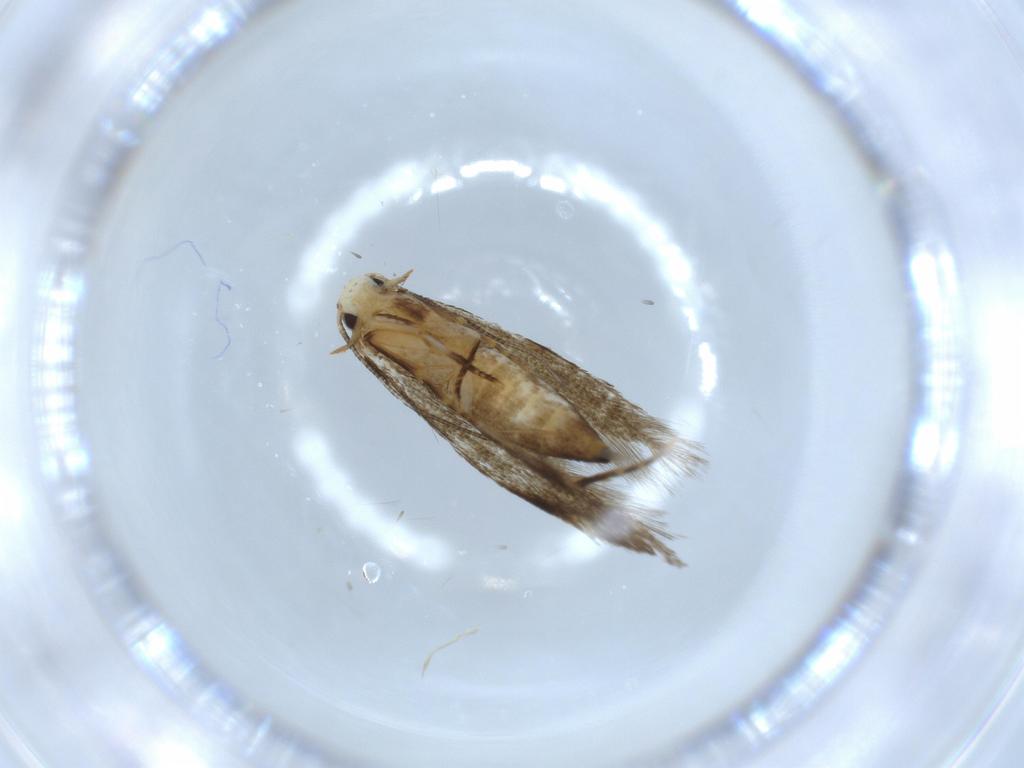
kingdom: Animalia
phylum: Arthropoda
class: Insecta
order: Lepidoptera
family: Tineidae
